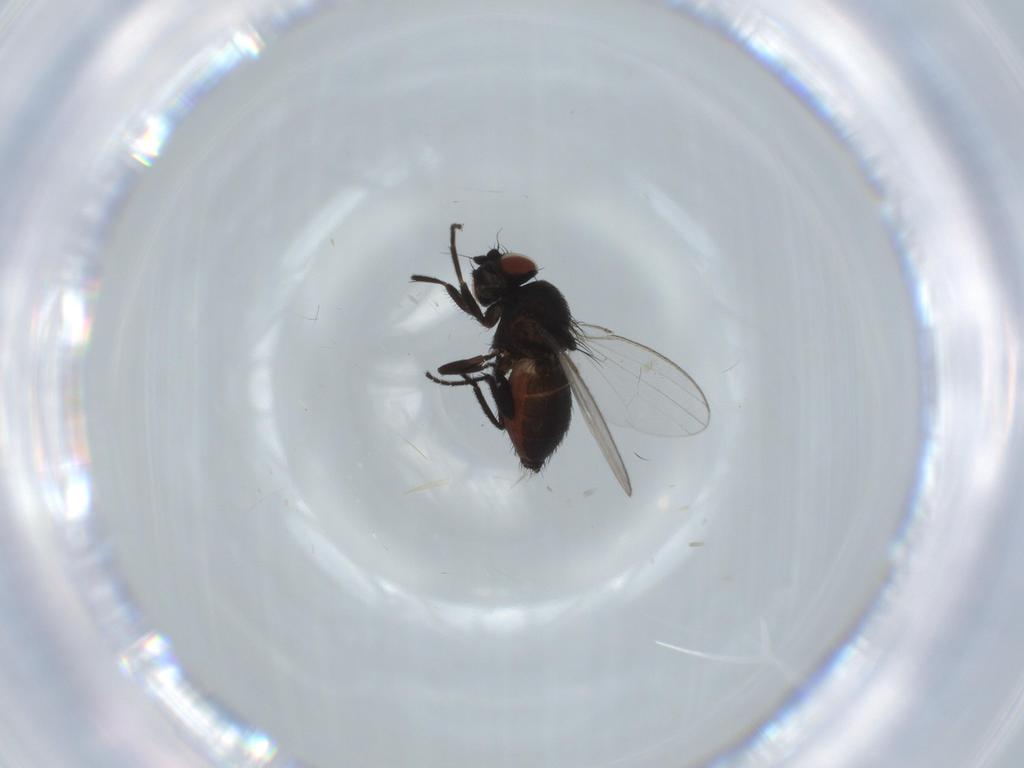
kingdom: Animalia
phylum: Arthropoda
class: Insecta
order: Diptera
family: Milichiidae
